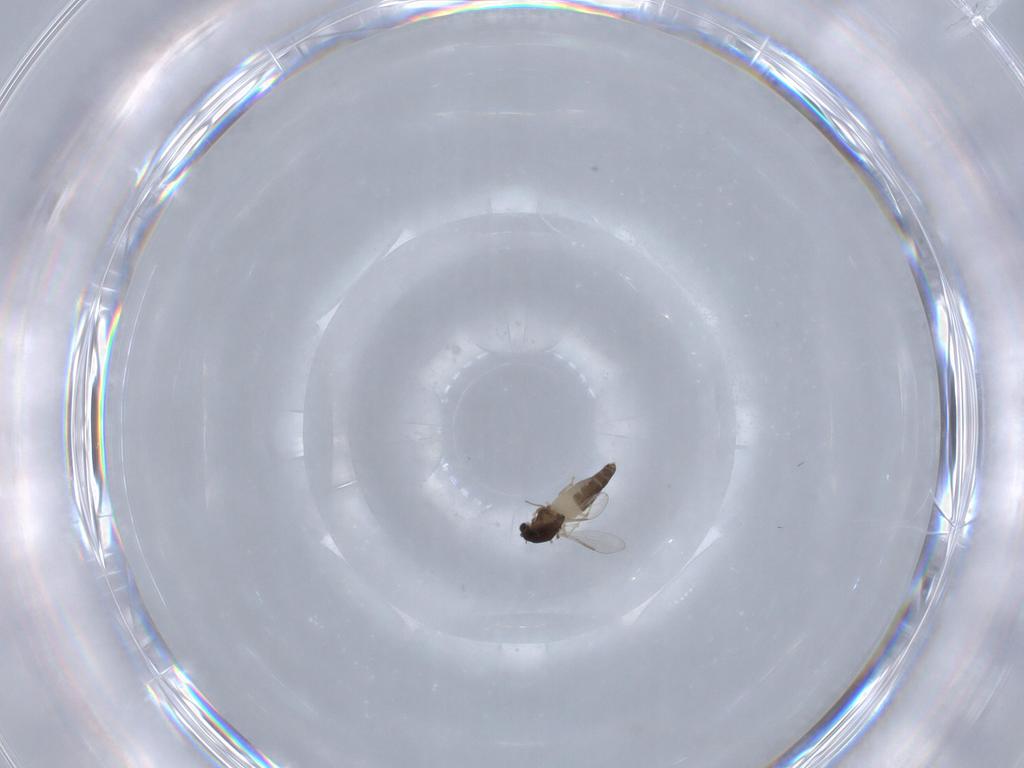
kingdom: Animalia
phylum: Arthropoda
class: Insecta
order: Diptera
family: Chironomidae
